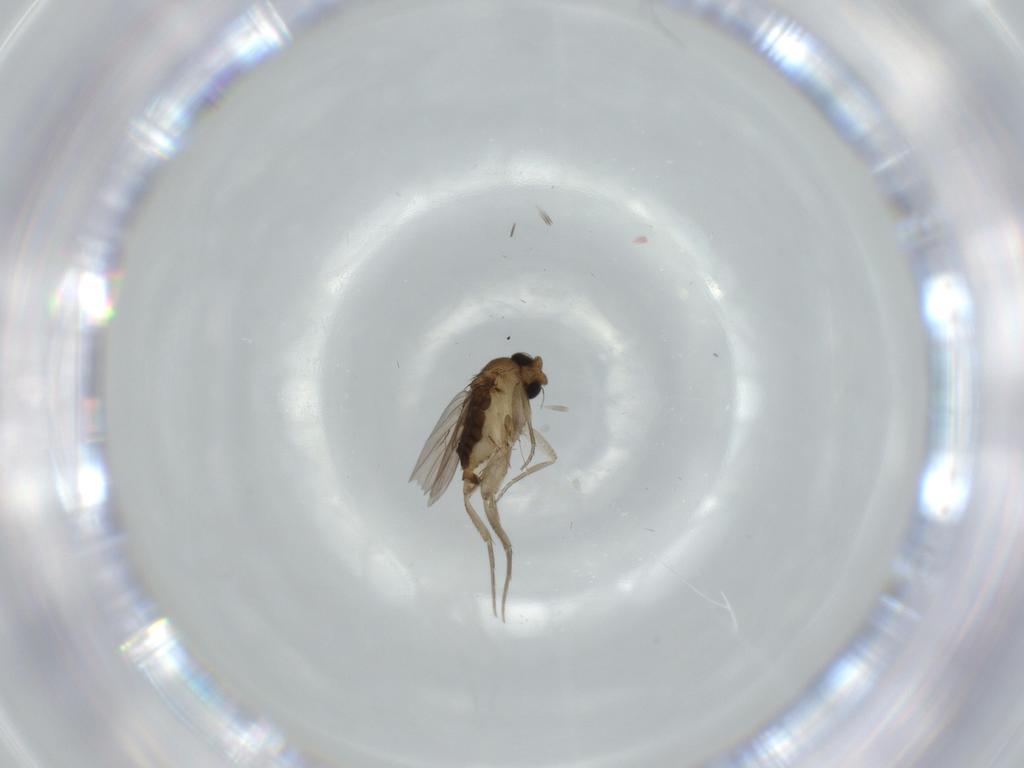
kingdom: Animalia
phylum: Arthropoda
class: Insecta
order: Diptera
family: Phoridae
